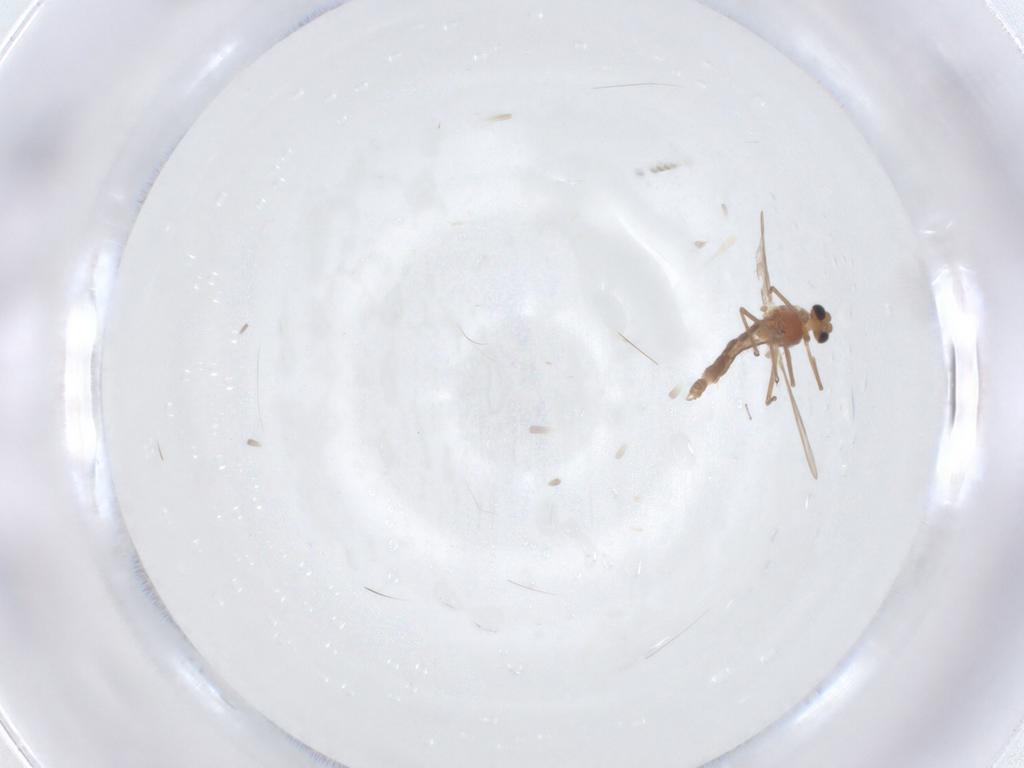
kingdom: Animalia
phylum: Arthropoda
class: Insecta
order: Diptera
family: Chironomidae
